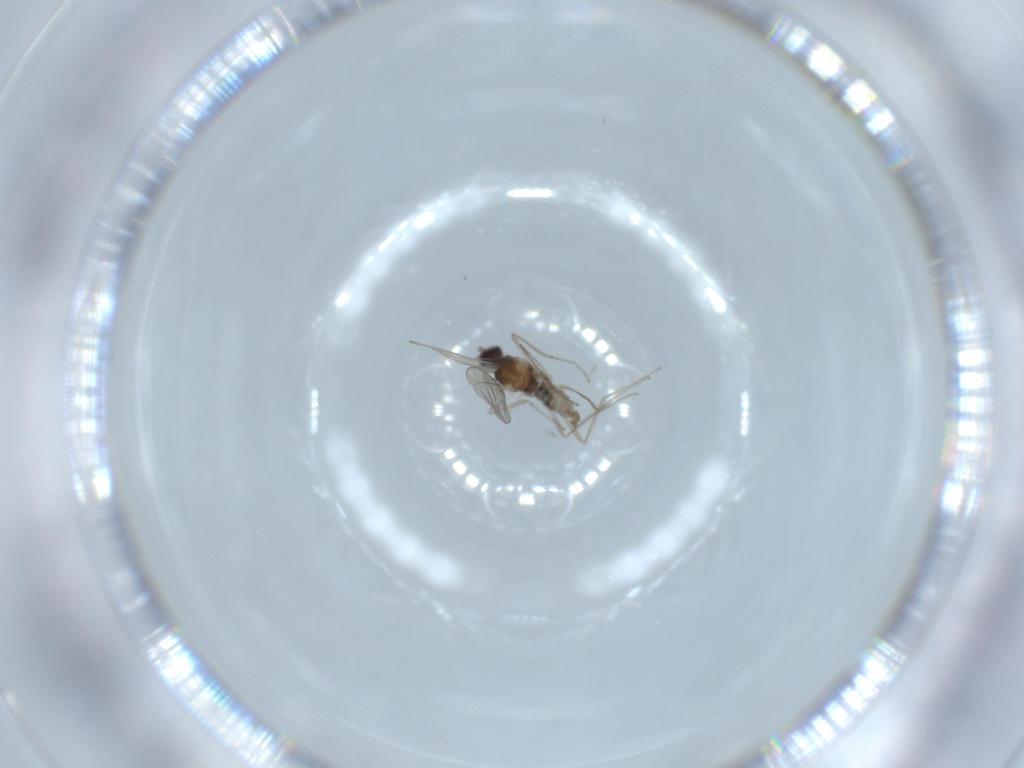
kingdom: Animalia
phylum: Arthropoda
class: Insecta
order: Diptera
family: Cecidomyiidae
